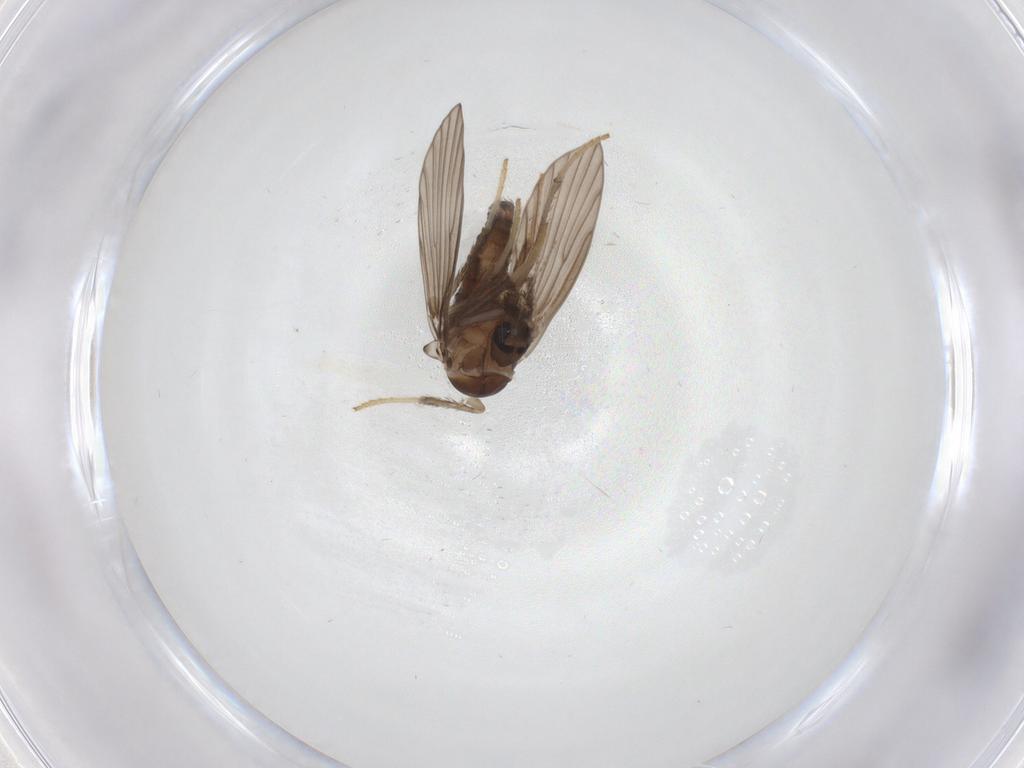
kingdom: Animalia
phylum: Arthropoda
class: Insecta
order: Diptera
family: Psychodidae
